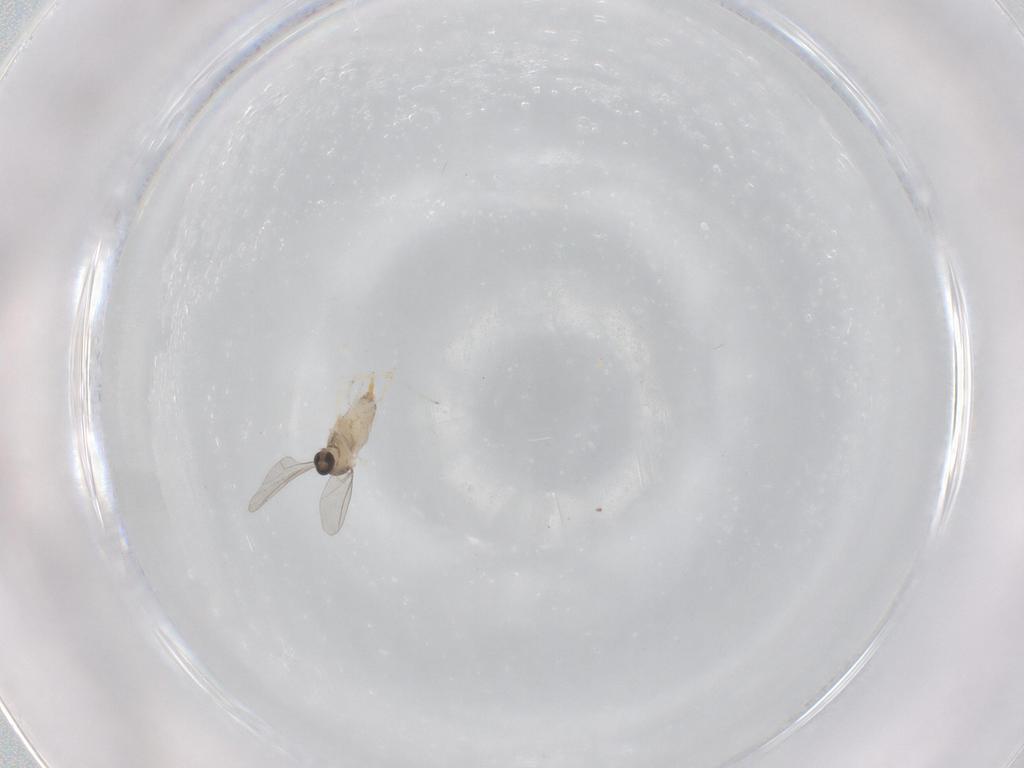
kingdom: Animalia
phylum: Arthropoda
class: Insecta
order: Diptera
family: Cecidomyiidae
